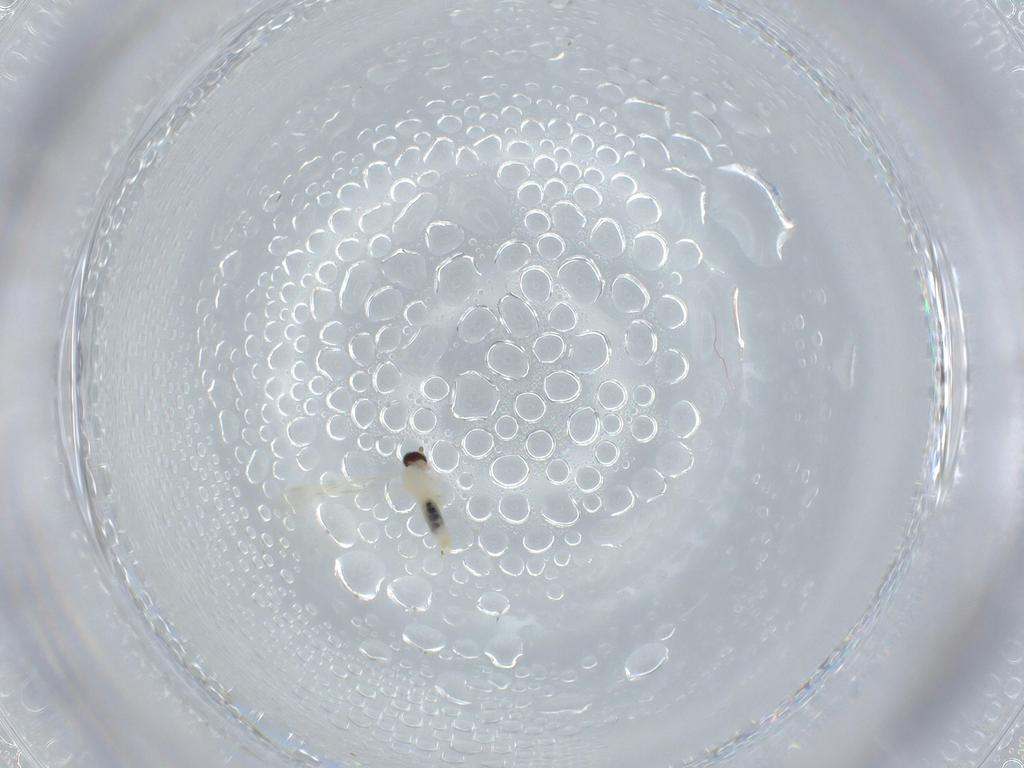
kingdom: Animalia
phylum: Arthropoda
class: Insecta
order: Diptera
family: Cecidomyiidae
